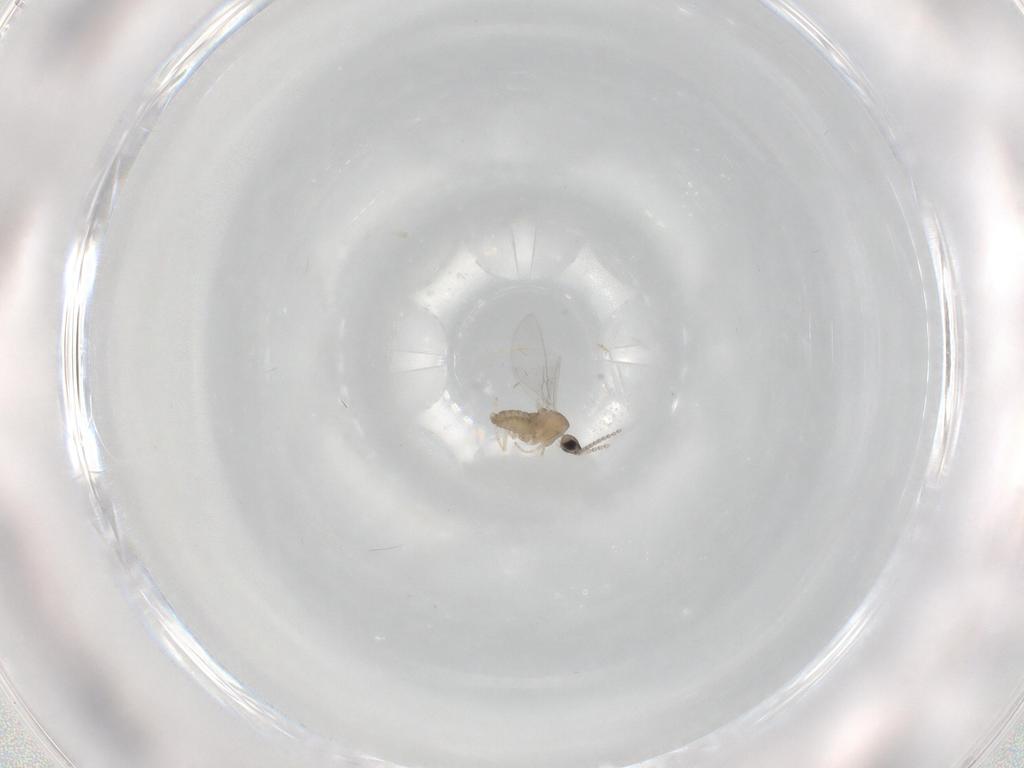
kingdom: Animalia
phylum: Arthropoda
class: Insecta
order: Diptera
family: Cecidomyiidae
